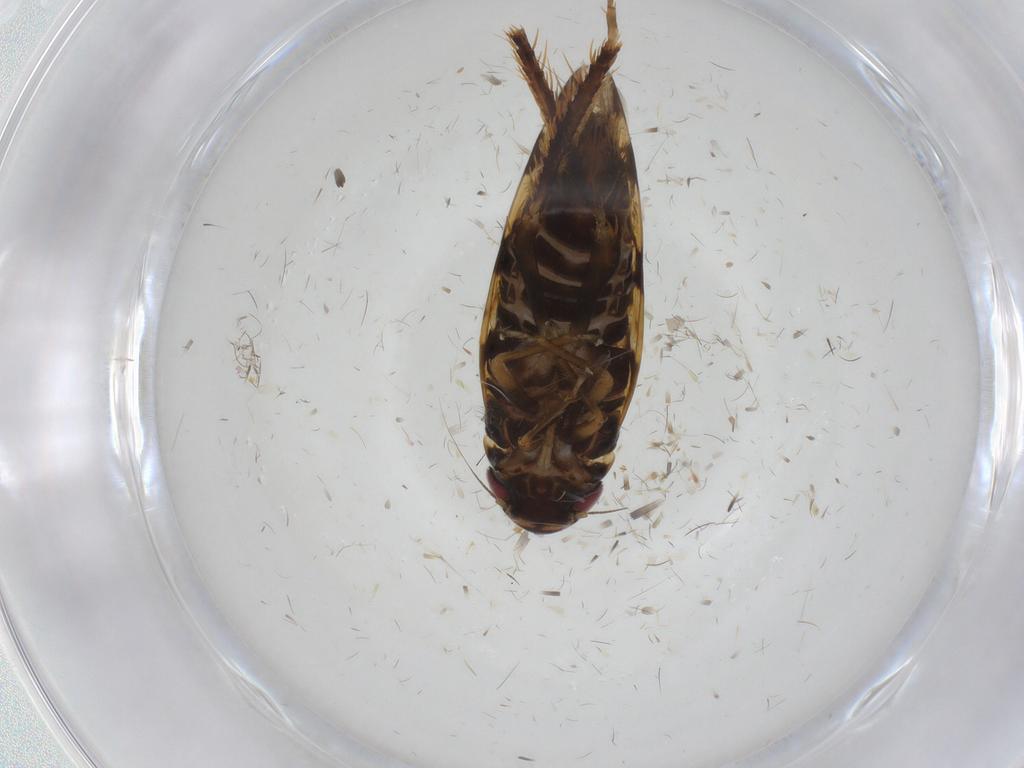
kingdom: Animalia
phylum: Arthropoda
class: Insecta
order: Hemiptera
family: Cicadellidae
